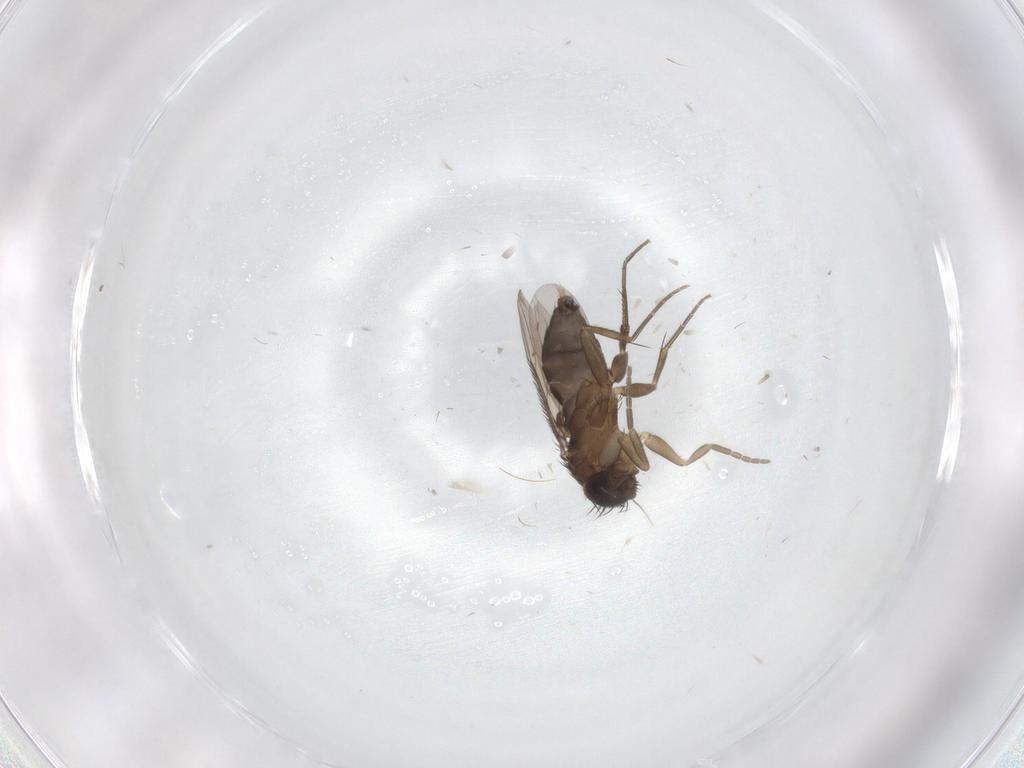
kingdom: Animalia
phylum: Arthropoda
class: Insecta
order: Diptera
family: Phoridae
